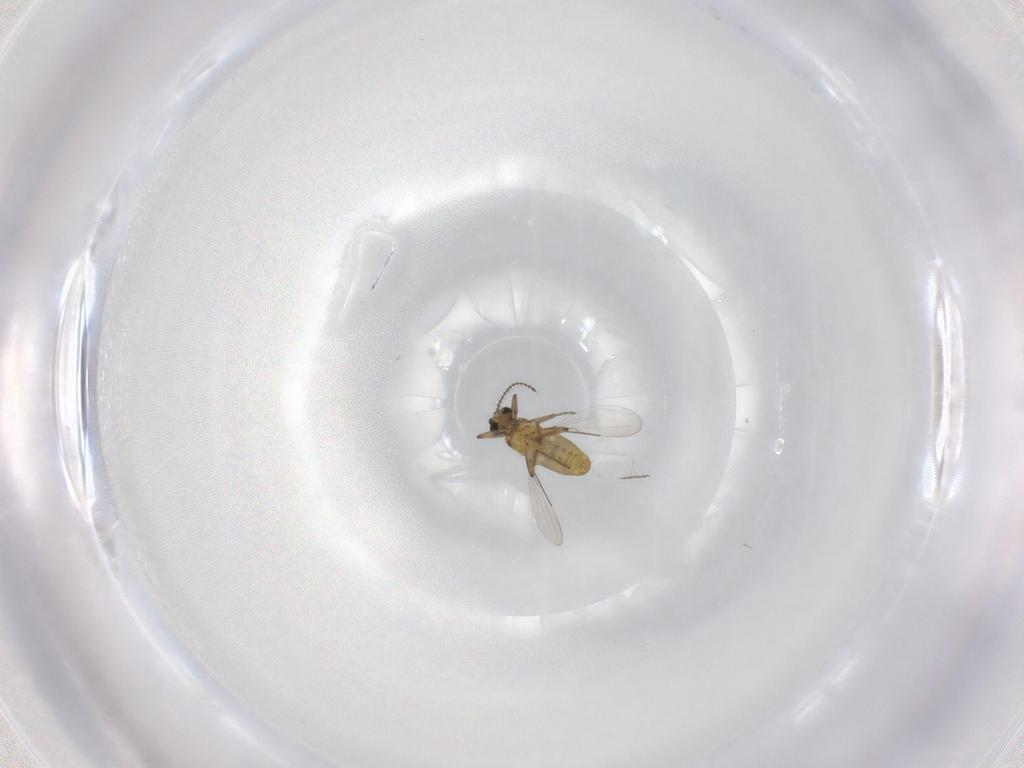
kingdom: Animalia
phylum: Arthropoda
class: Insecta
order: Diptera
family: Ceratopogonidae
